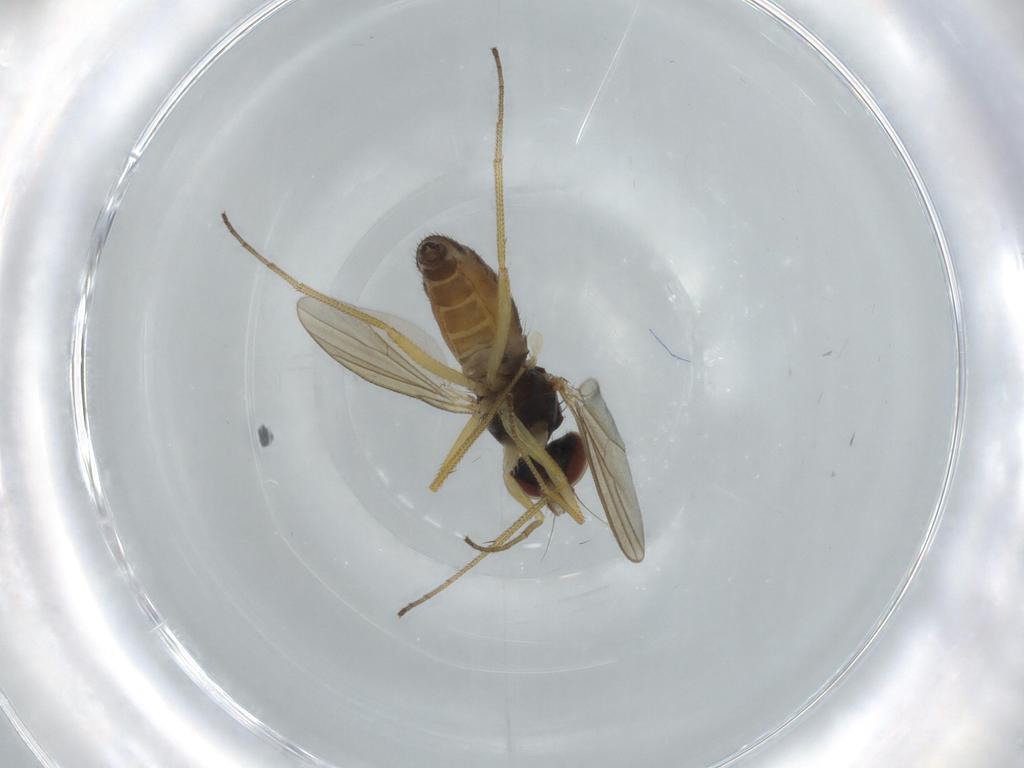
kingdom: Animalia
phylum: Arthropoda
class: Insecta
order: Diptera
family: Dolichopodidae
